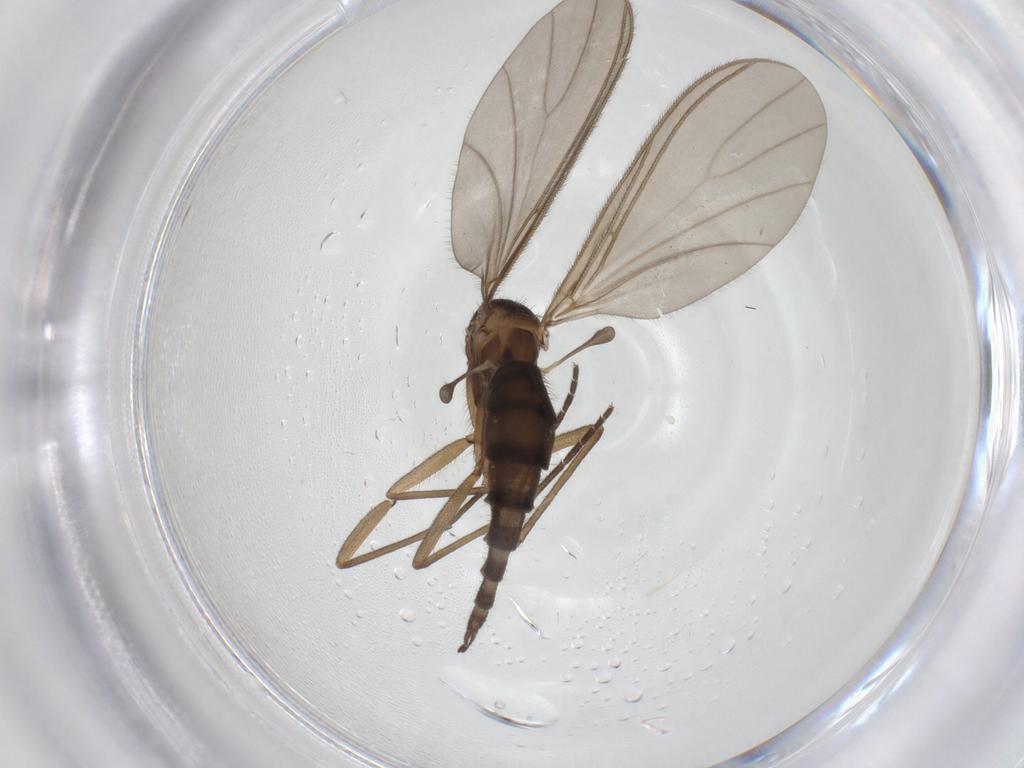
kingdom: Animalia
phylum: Arthropoda
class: Insecta
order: Diptera
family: Sciaridae
